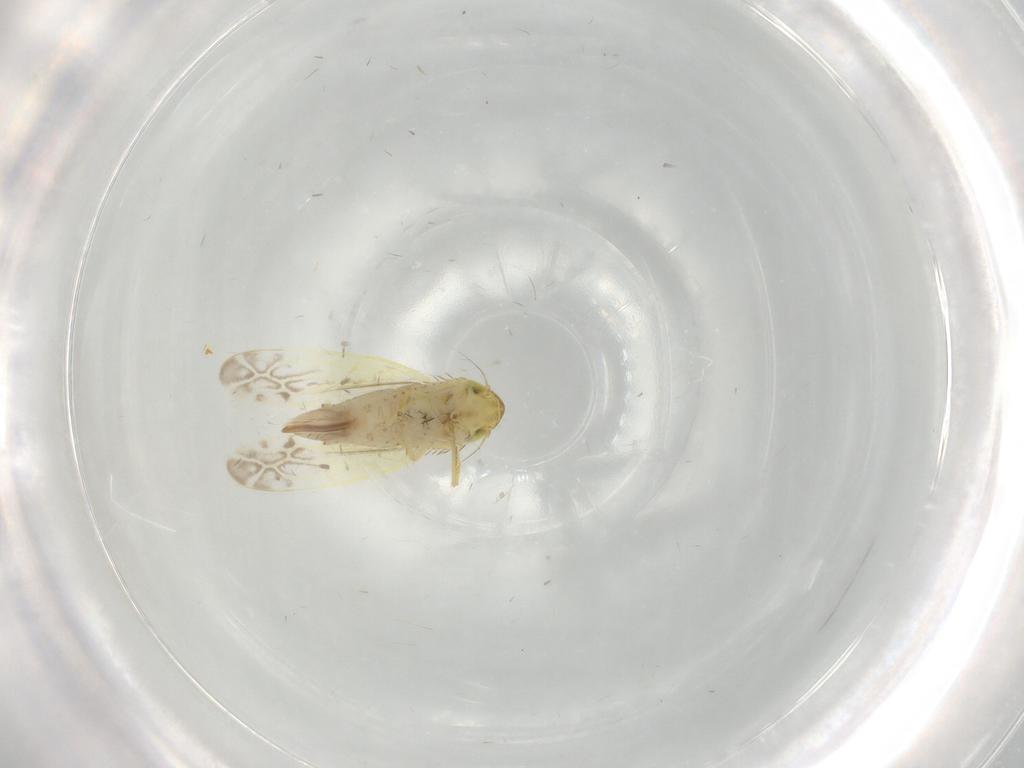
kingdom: Animalia
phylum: Arthropoda
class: Insecta
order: Hemiptera
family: Cicadellidae
